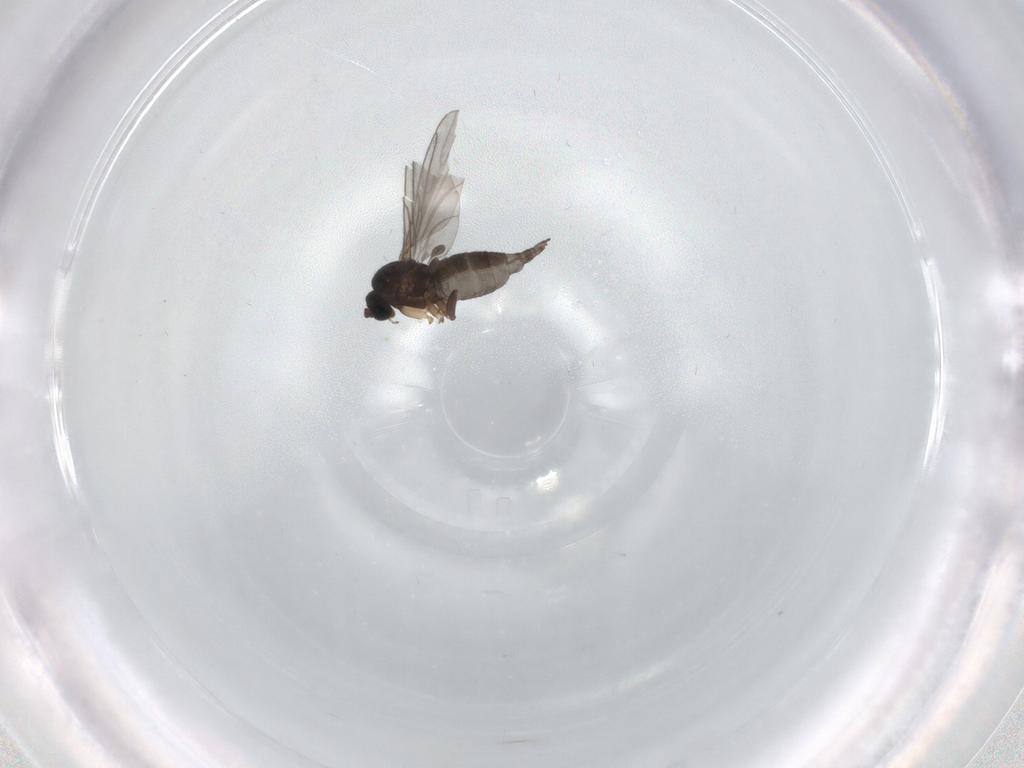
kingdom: Animalia
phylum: Arthropoda
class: Insecta
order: Diptera
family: Sciaridae
